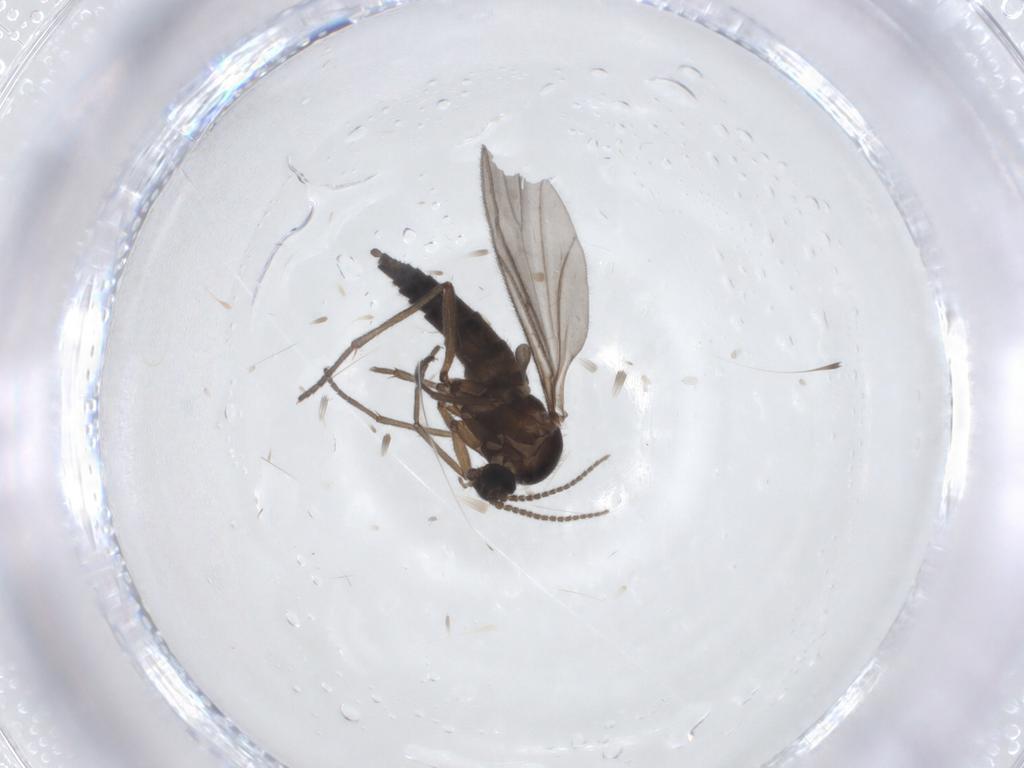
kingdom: Animalia
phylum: Arthropoda
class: Insecta
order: Diptera
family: Sciaridae
